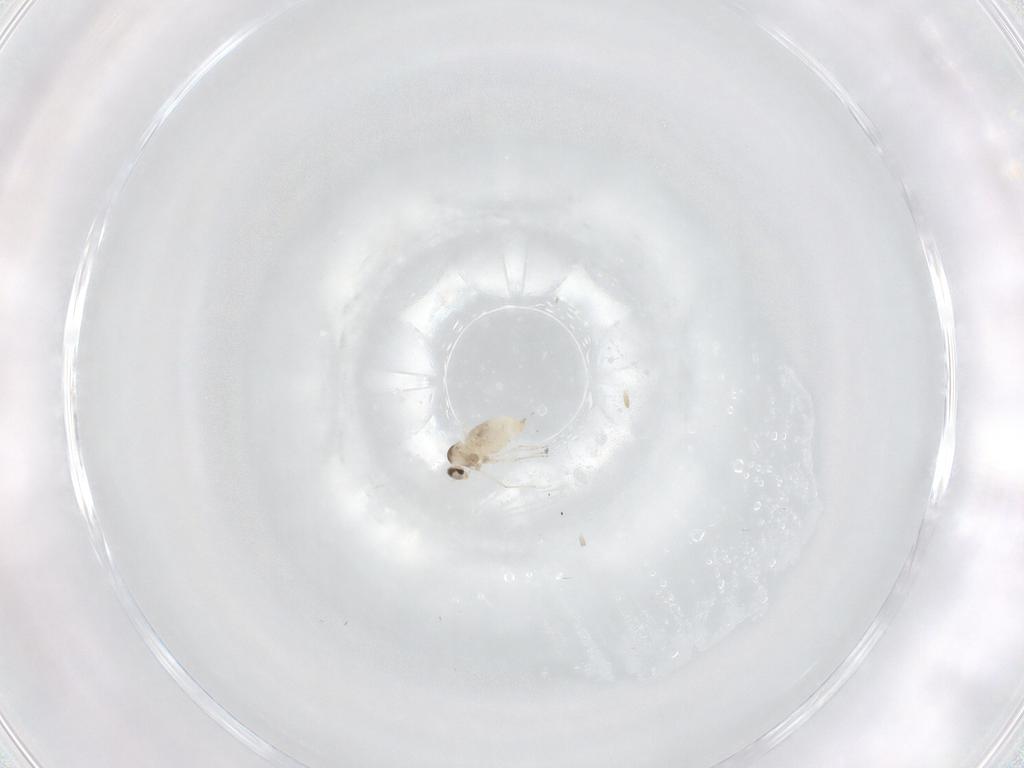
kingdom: Animalia
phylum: Arthropoda
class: Insecta
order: Diptera
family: Cecidomyiidae
